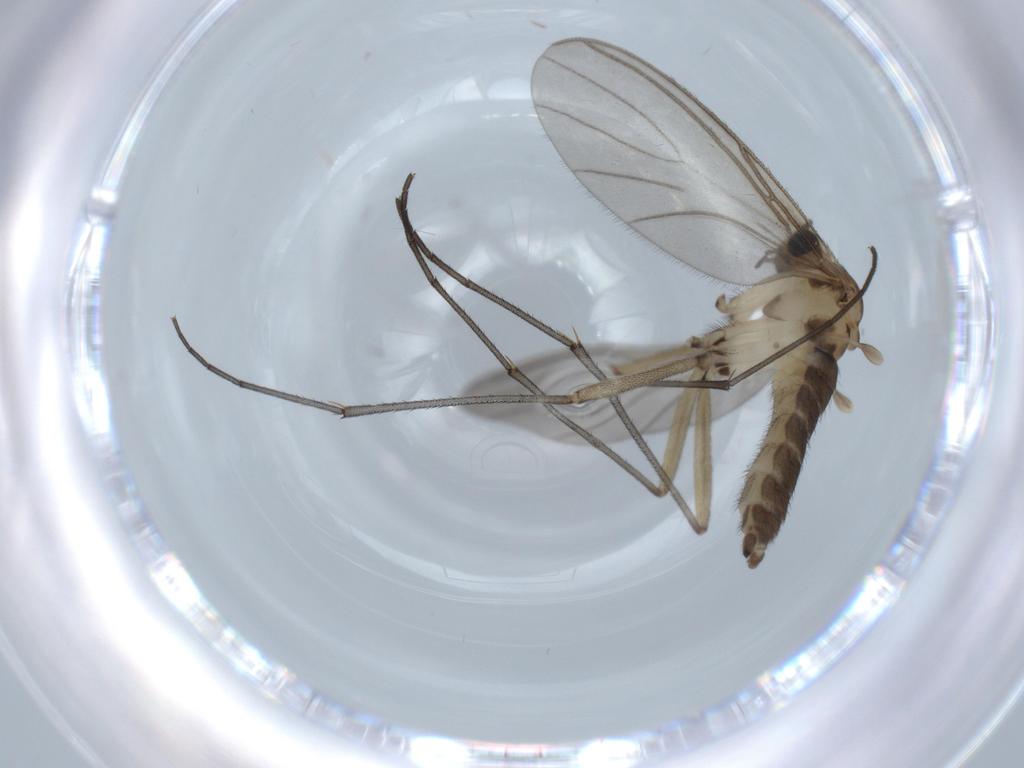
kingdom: Animalia
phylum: Arthropoda
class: Insecta
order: Diptera
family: Sciaridae
